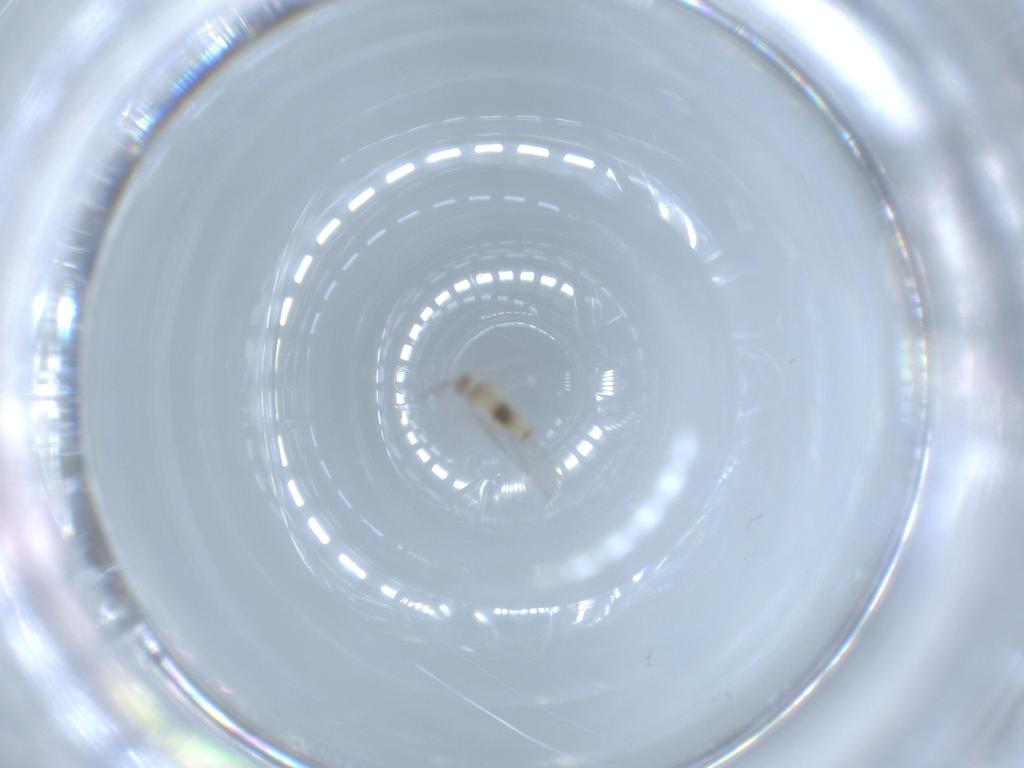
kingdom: Animalia
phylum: Arthropoda
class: Insecta
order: Diptera
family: Cecidomyiidae
